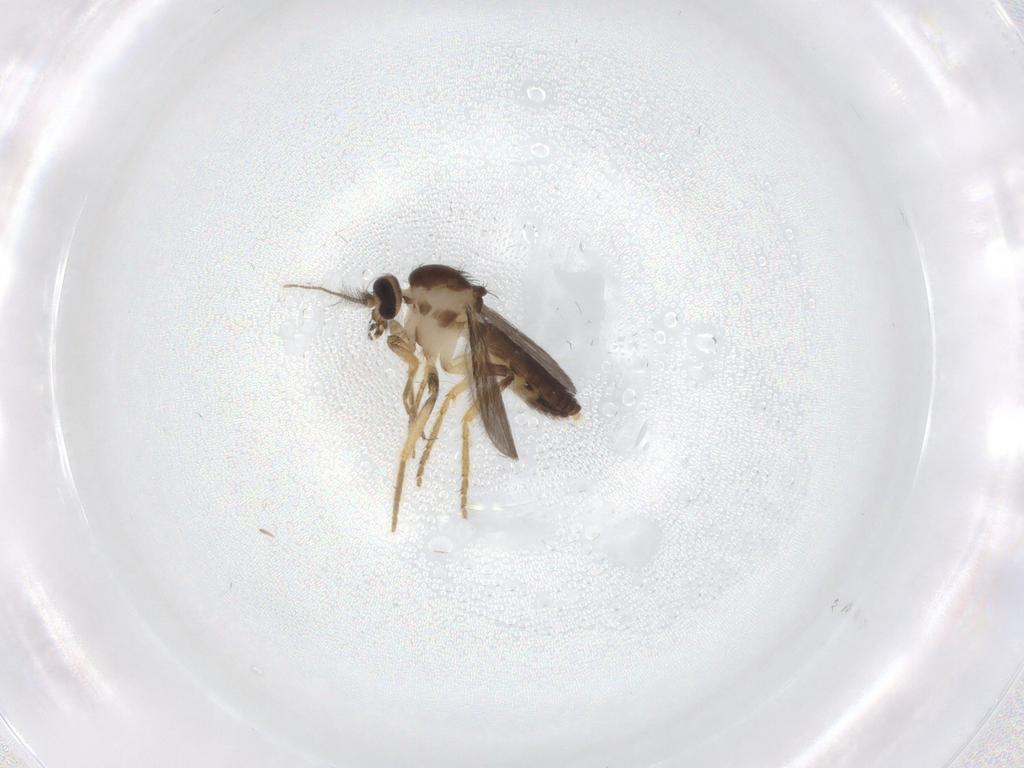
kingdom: Animalia
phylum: Arthropoda
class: Insecta
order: Diptera
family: Ceratopogonidae
